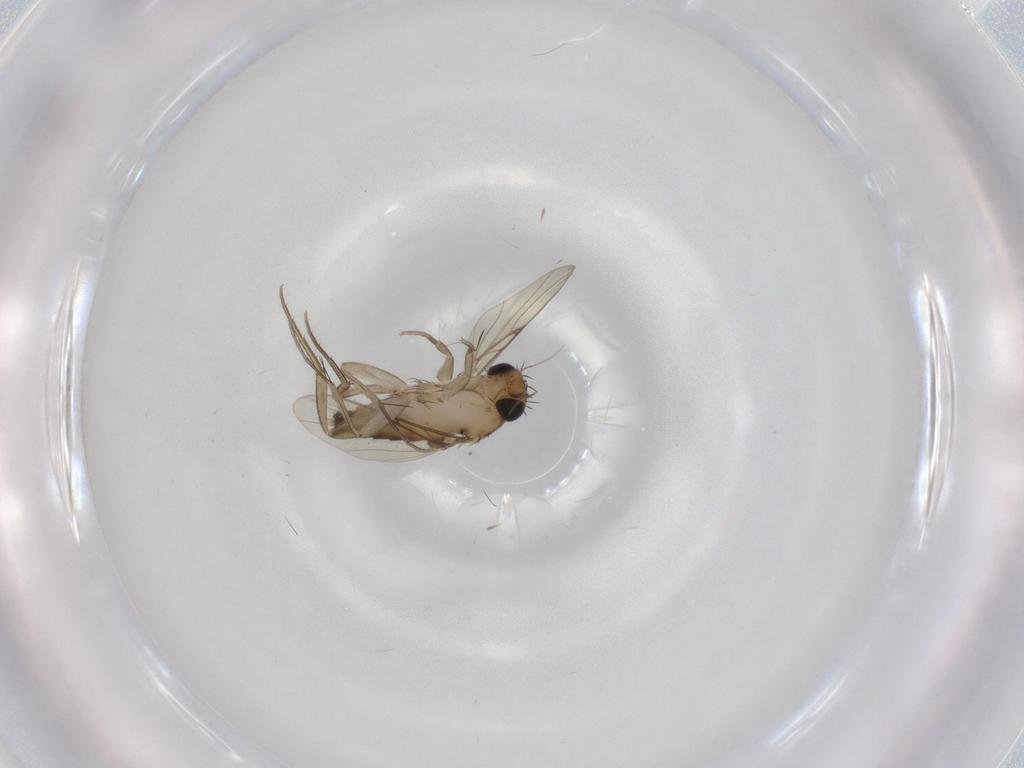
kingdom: Animalia
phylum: Arthropoda
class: Insecta
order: Diptera
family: Phoridae
